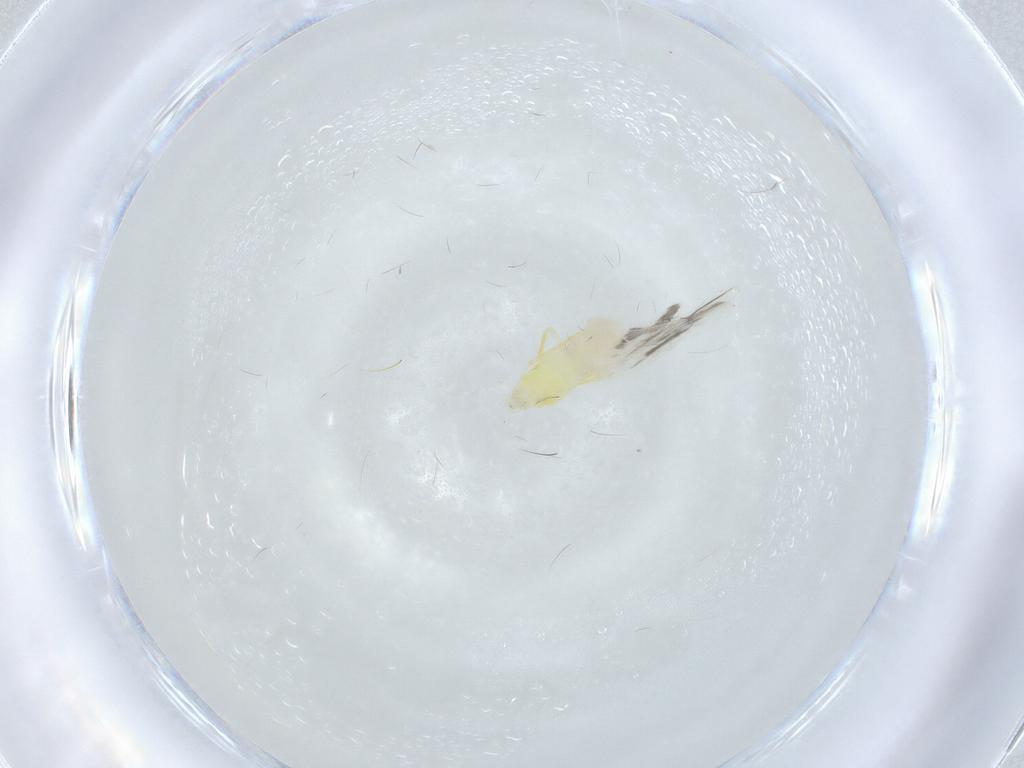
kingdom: Animalia
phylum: Arthropoda
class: Insecta
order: Hemiptera
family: Aleyrodidae
